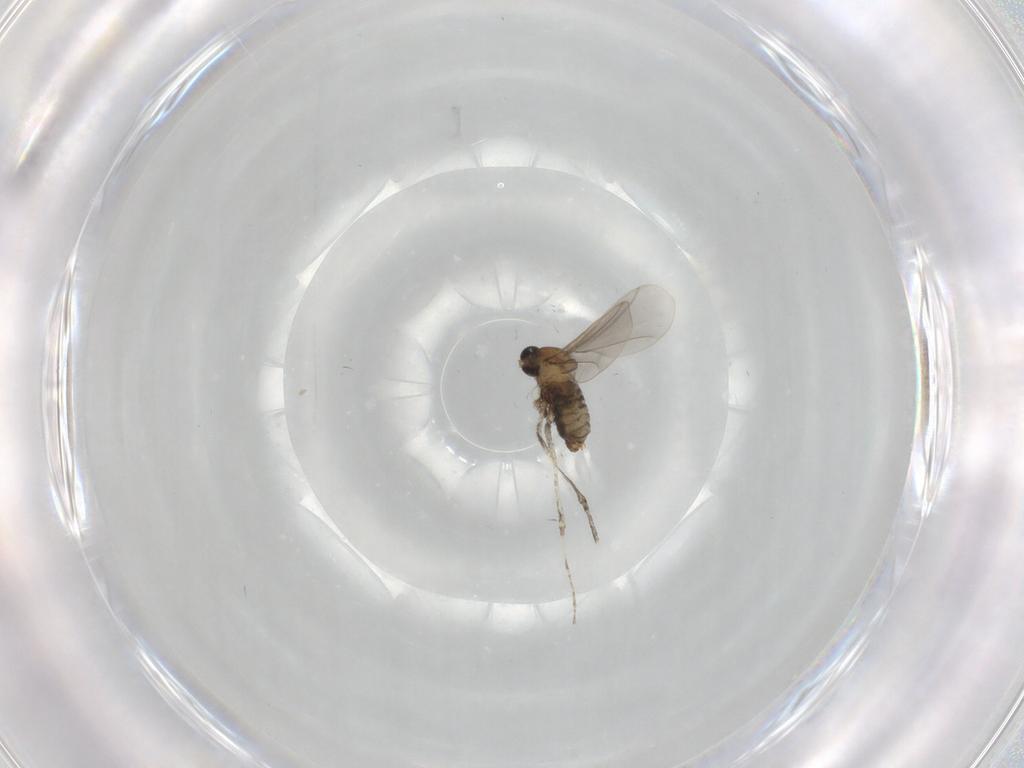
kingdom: Animalia
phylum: Arthropoda
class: Insecta
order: Diptera
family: Cecidomyiidae
